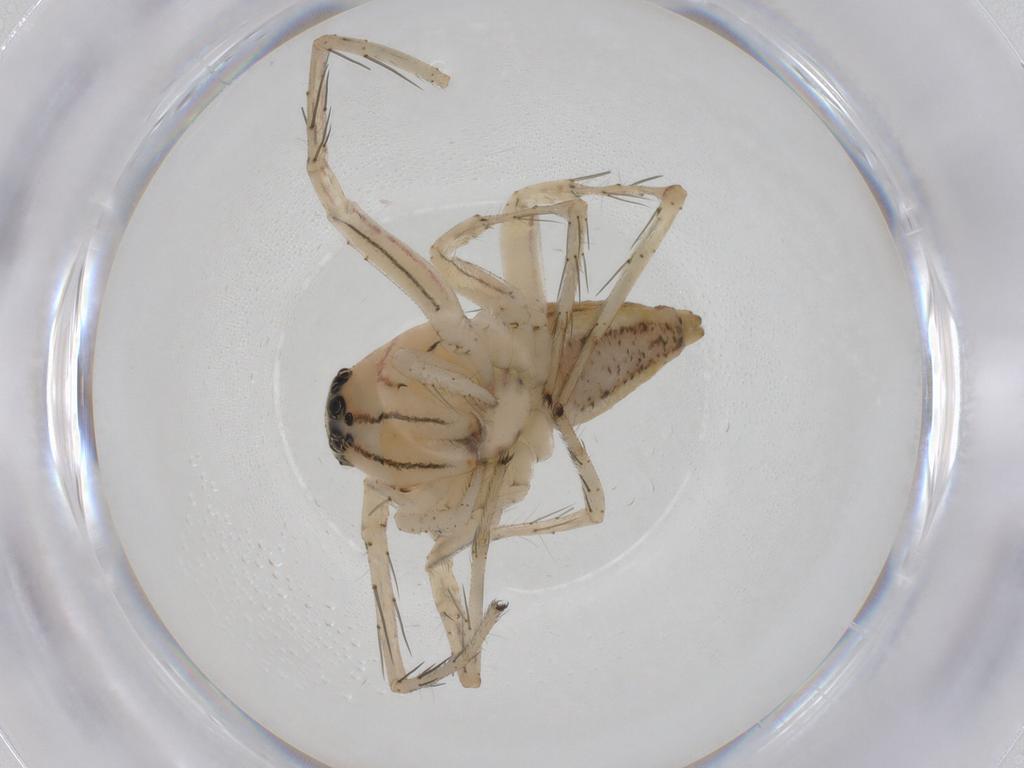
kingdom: Animalia
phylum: Arthropoda
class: Arachnida
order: Araneae
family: Oxyopidae
